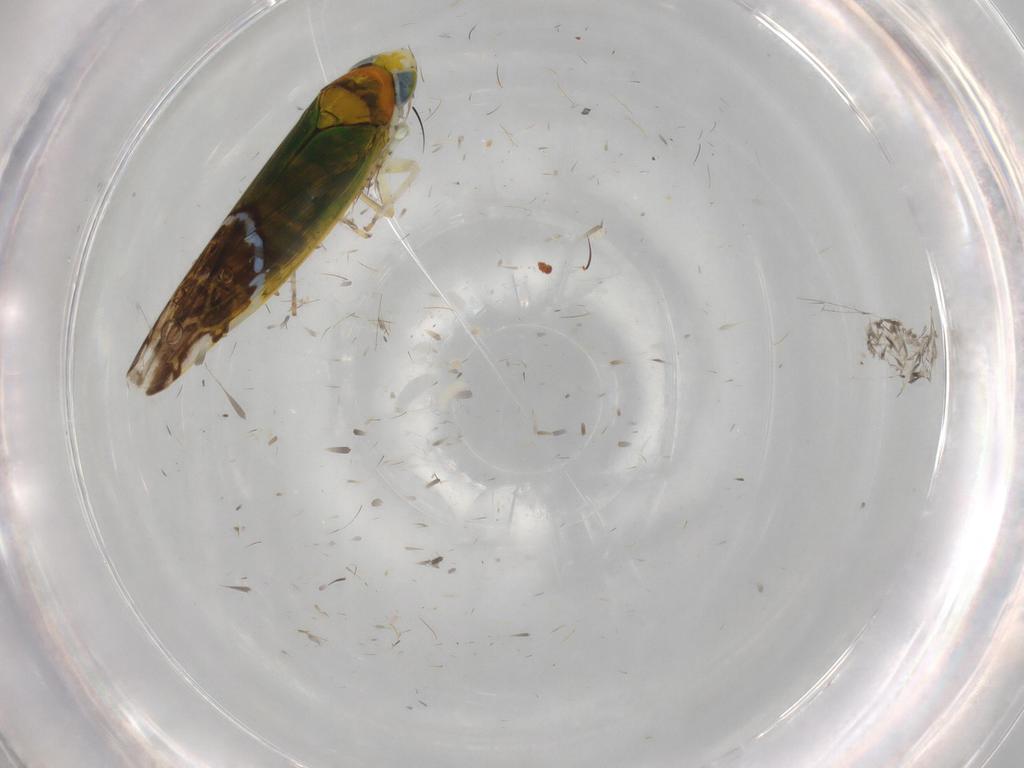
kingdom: Animalia
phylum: Arthropoda
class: Insecta
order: Hemiptera
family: Cicadellidae
